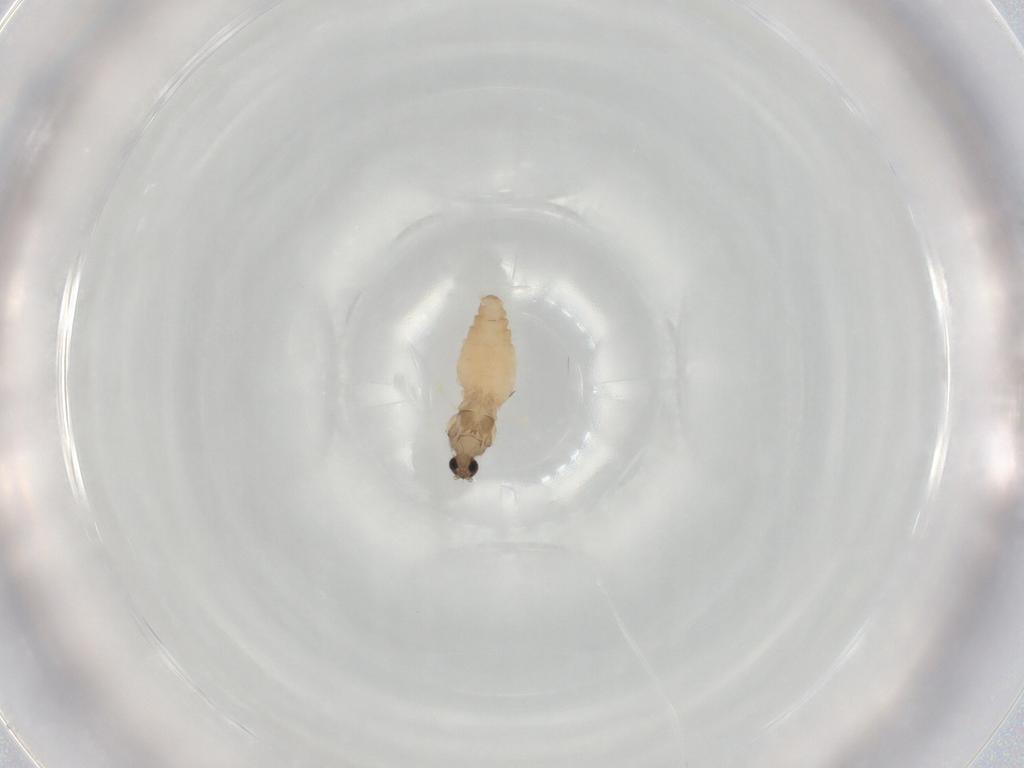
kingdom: Animalia
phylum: Arthropoda
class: Insecta
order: Diptera
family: Cecidomyiidae
